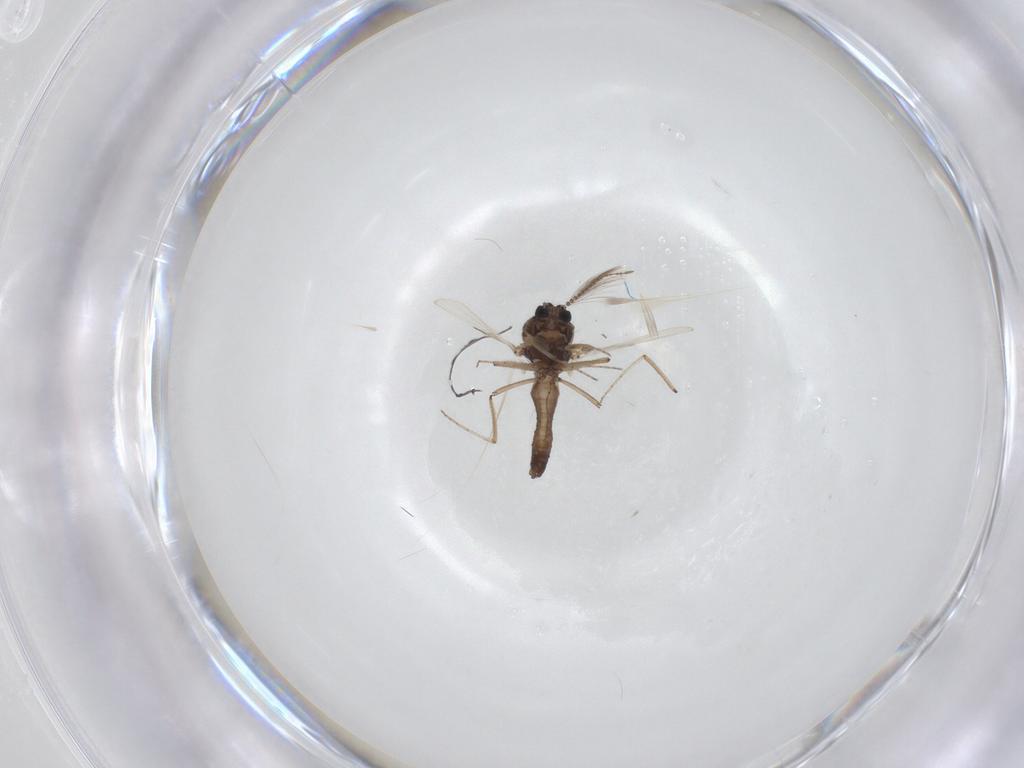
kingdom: Animalia
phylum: Arthropoda
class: Insecta
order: Diptera
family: Ceratopogonidae
